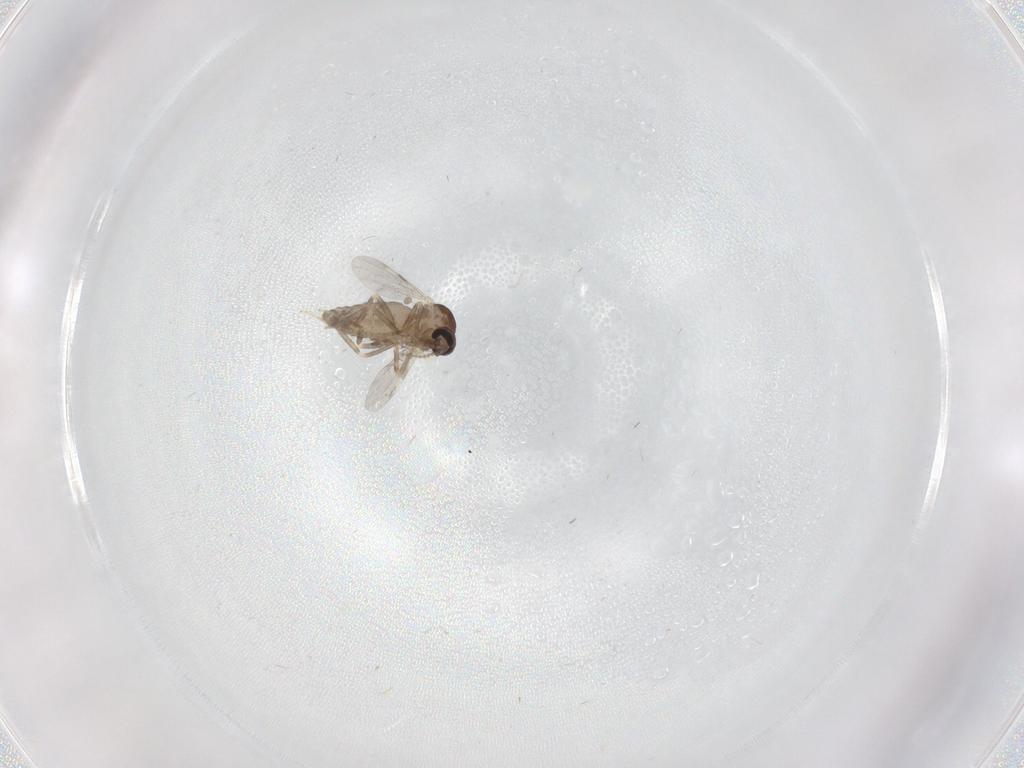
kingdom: Animalia
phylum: Arthropoda
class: Insecta
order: Diptera
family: Ceratopogonidae
